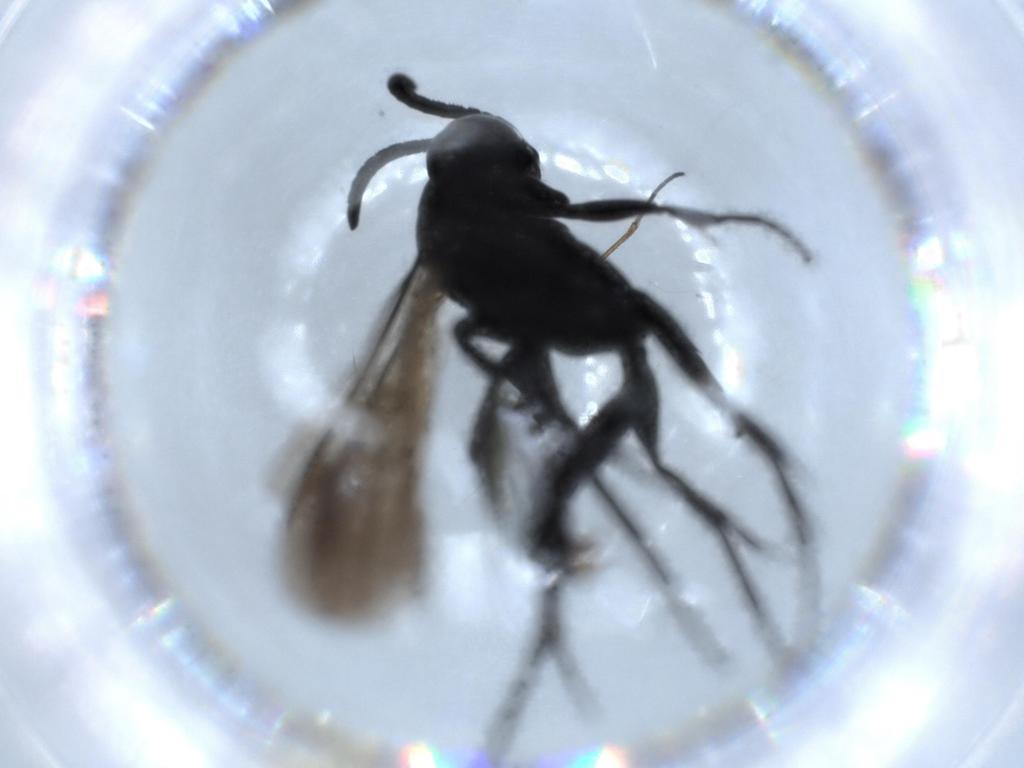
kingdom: Animalia
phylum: Arthropoda
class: Insecta
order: Hymenoptera
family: Pompilidae
